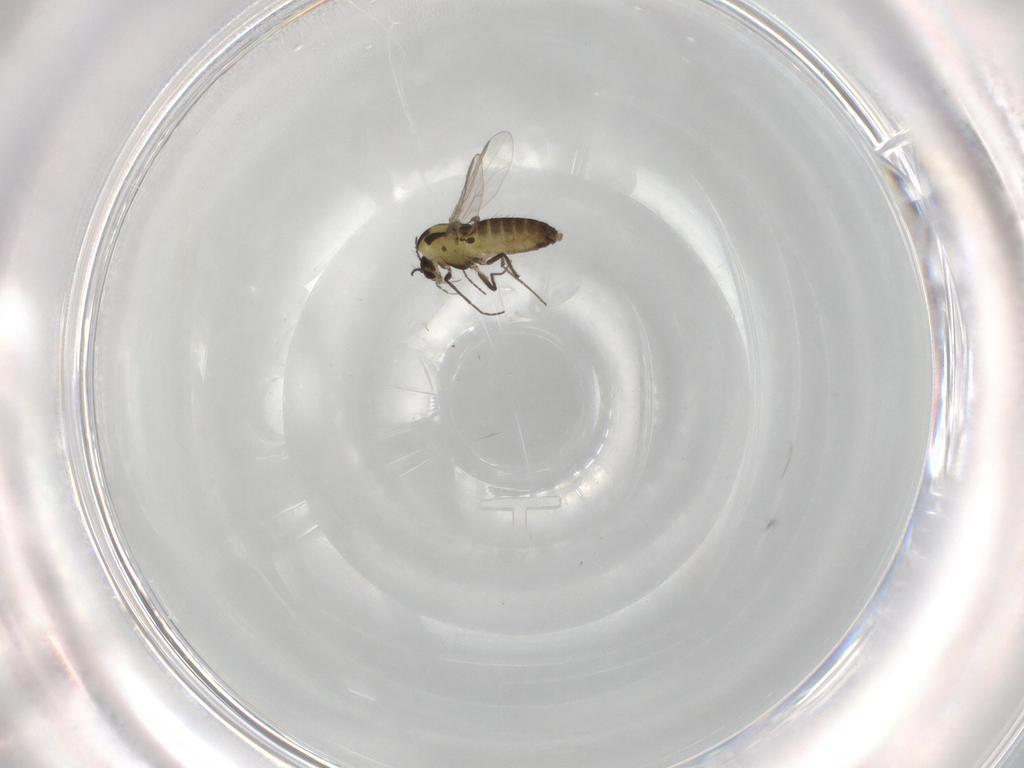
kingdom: Animalia
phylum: Arthropoda
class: Insecta
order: Diptera
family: Chironomidae
